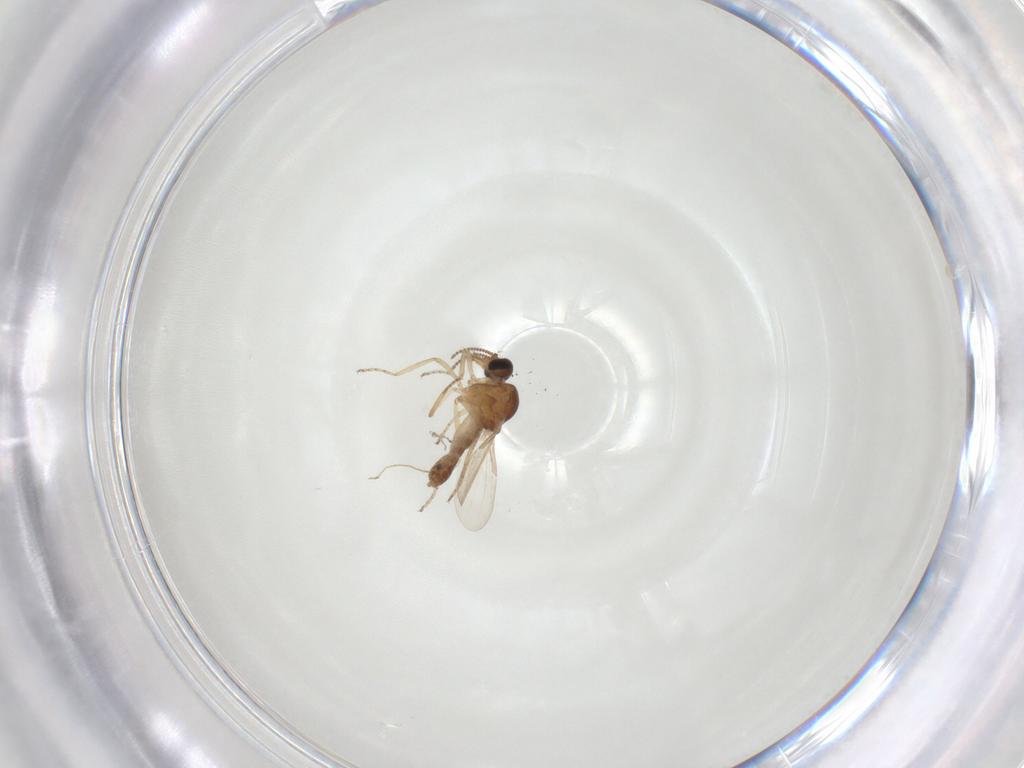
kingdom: Animalia
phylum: Arthropoda
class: Insecta
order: Diptera
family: Ceratopogonidae
